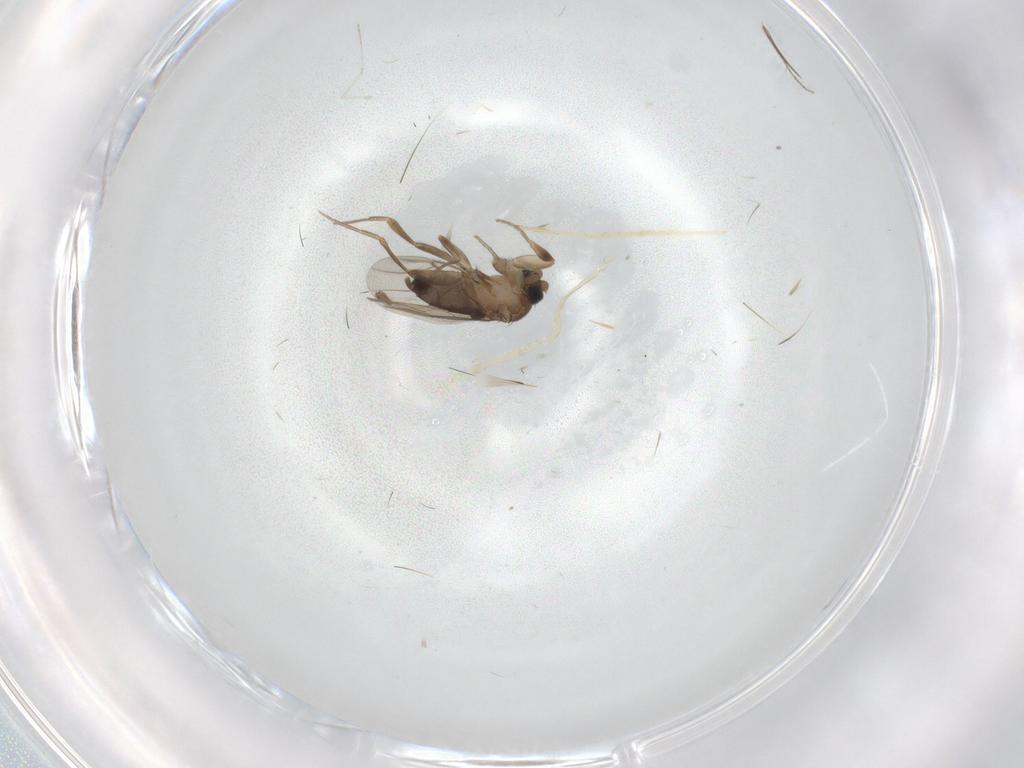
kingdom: Animalia
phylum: Arthropoda
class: Insecta
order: Diptera
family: Phoridae
